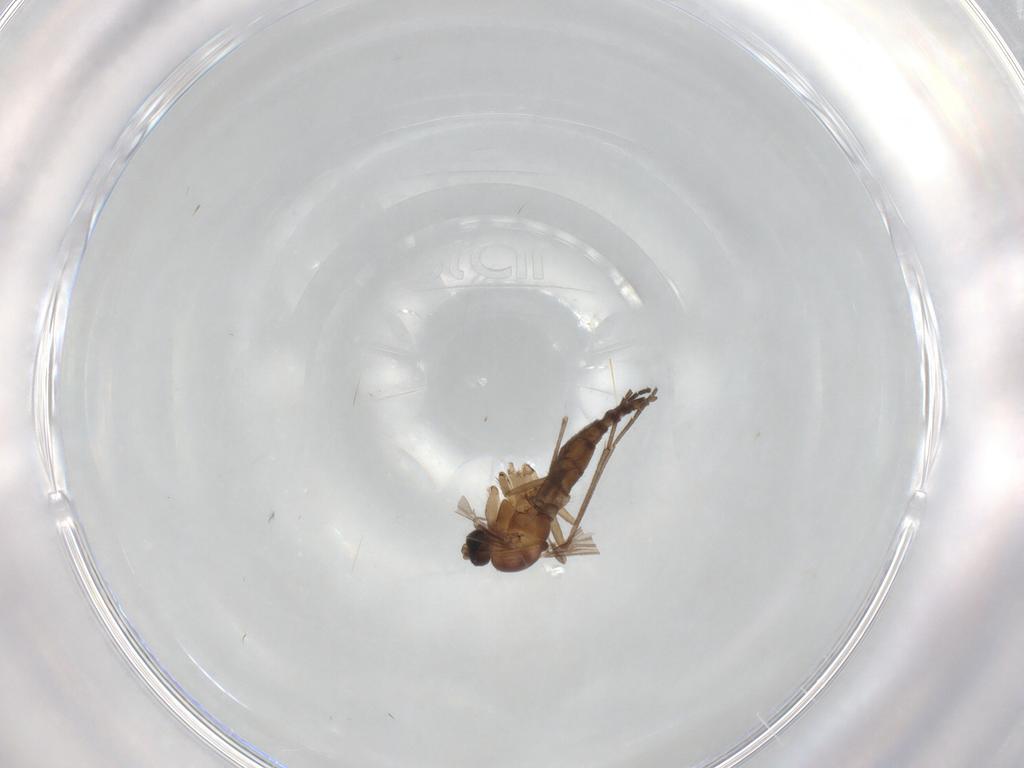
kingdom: Animalia
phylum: Arthropoda
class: Insecta
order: Diptera
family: Sciaridae
